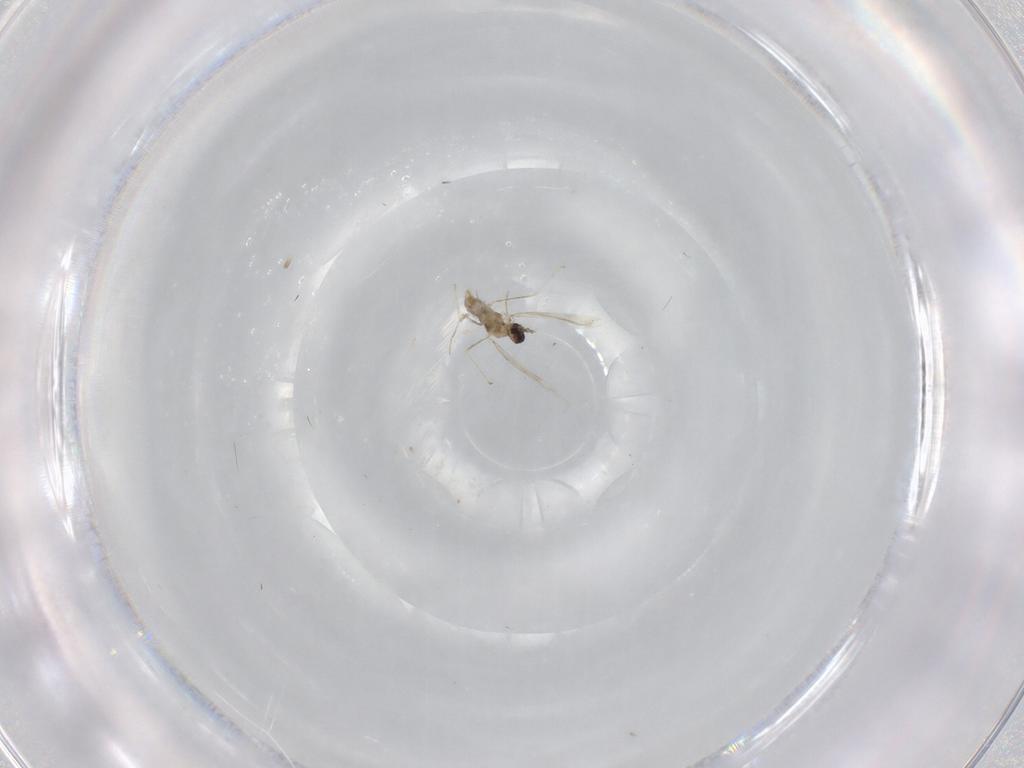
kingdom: Animalia
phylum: Arthropoda
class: Insecta
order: Diptera
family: Cecidomyiidae
